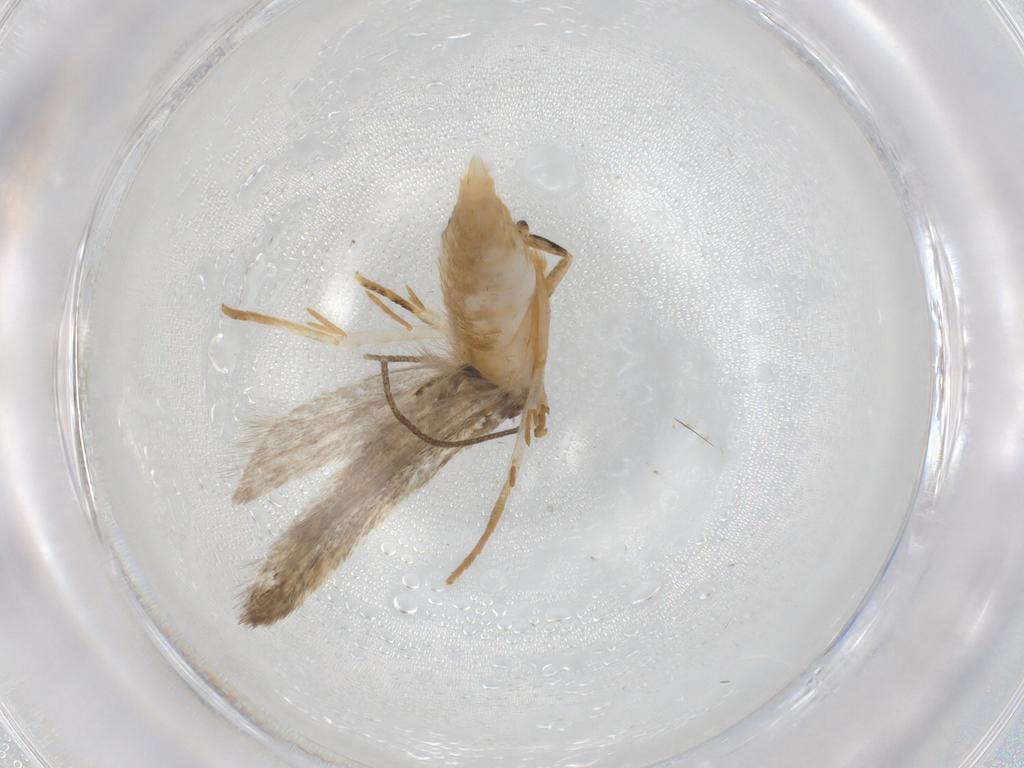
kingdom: Animalia
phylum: Arthropoda
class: Insecta
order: Lepidoptera
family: Autostichidae
